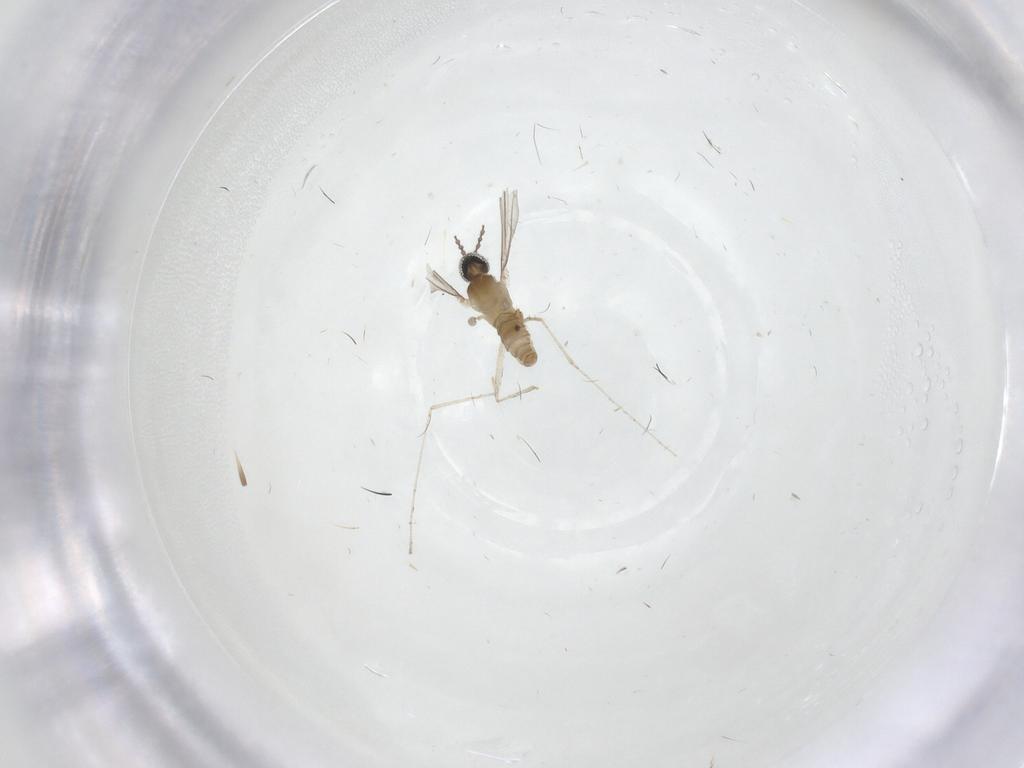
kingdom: Animalia
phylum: Arthropoda
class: Insecta
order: Diptera
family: Cecidomyiidae
